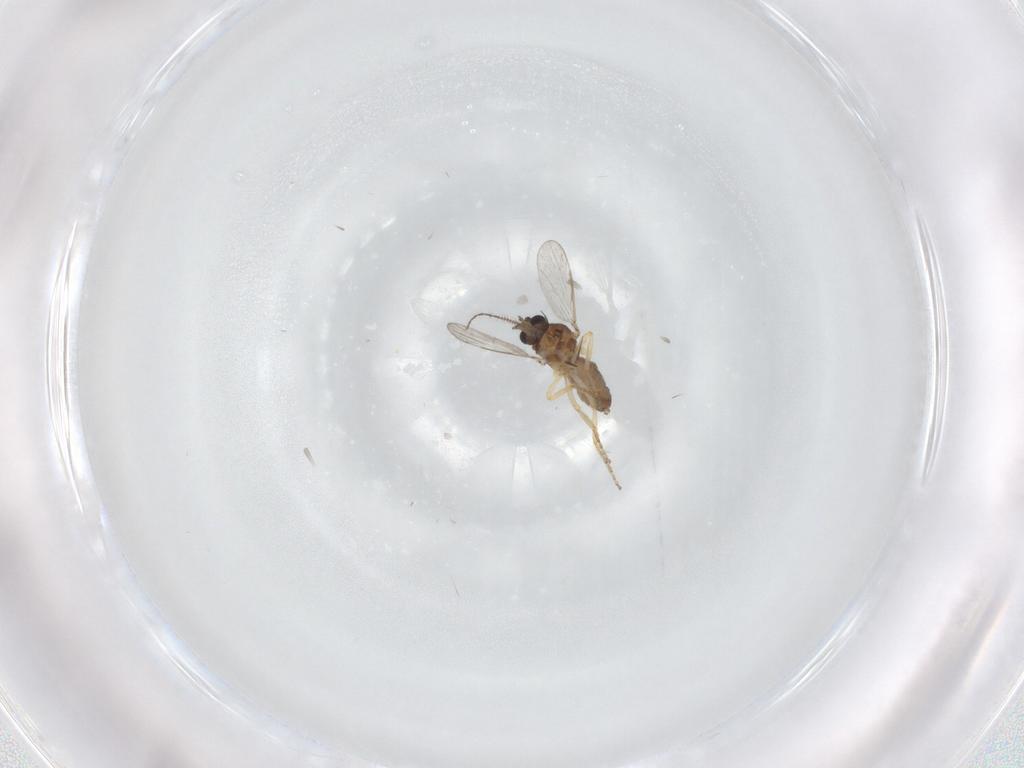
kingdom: Animalia
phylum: Arthropoda
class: Insecta
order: Diptera
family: Ceratopogonidae
